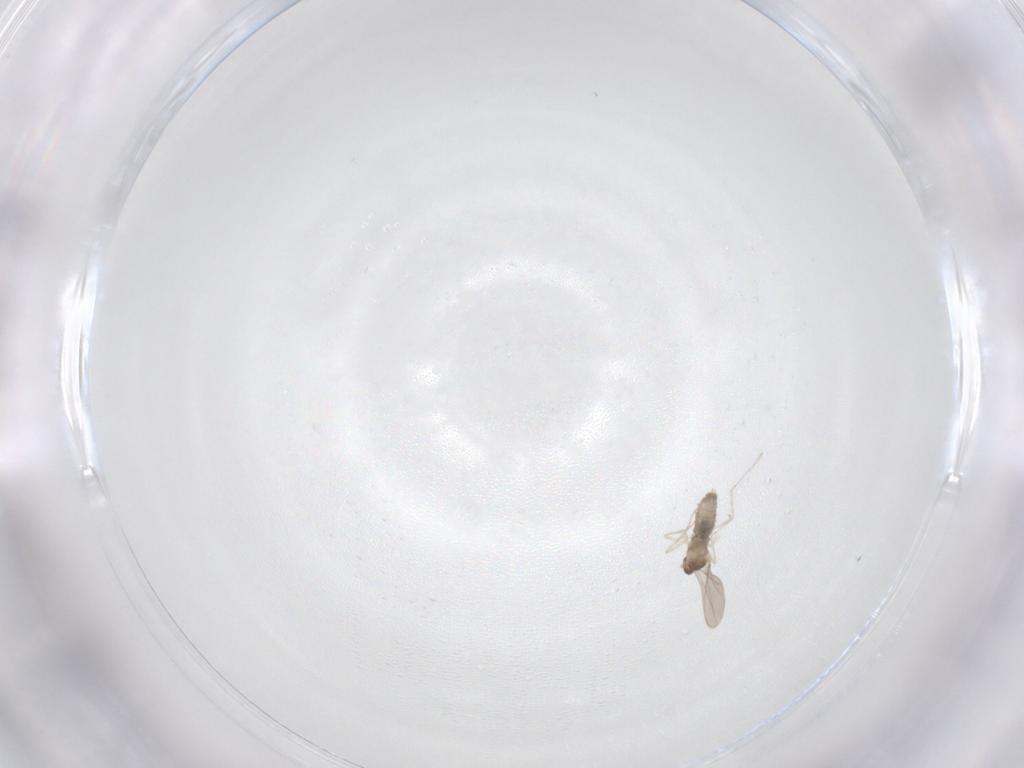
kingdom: Animalia
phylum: Arthropoda
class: Insecta
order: Diptera
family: Cecidomyiidae
